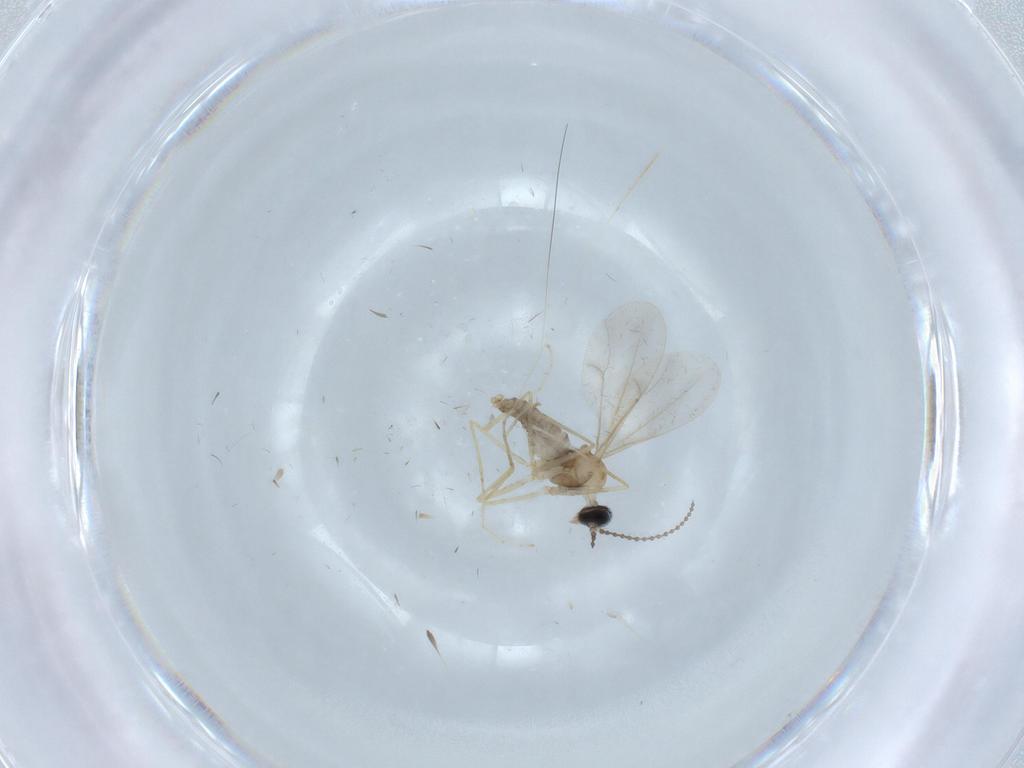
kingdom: Animalia
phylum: Arthropoda
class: Insecta
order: Diptera
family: Cecidomyiidae
